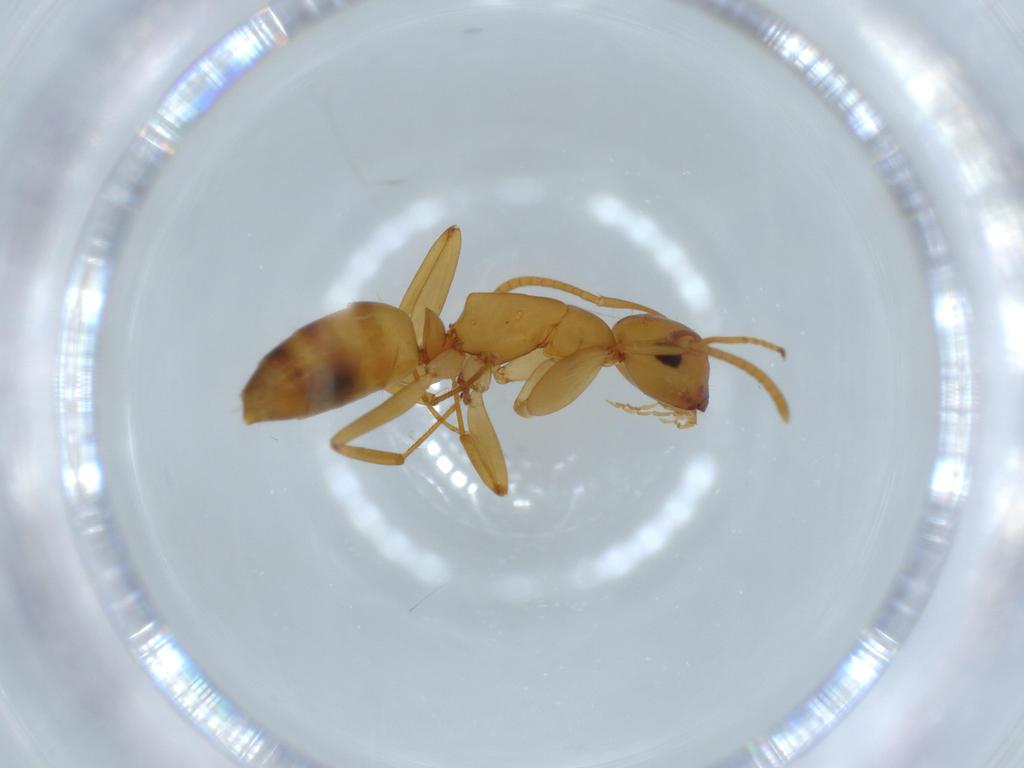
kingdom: Animalia
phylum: Arthropoda
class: Insecta
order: Hymenoptera
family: Formicidae
